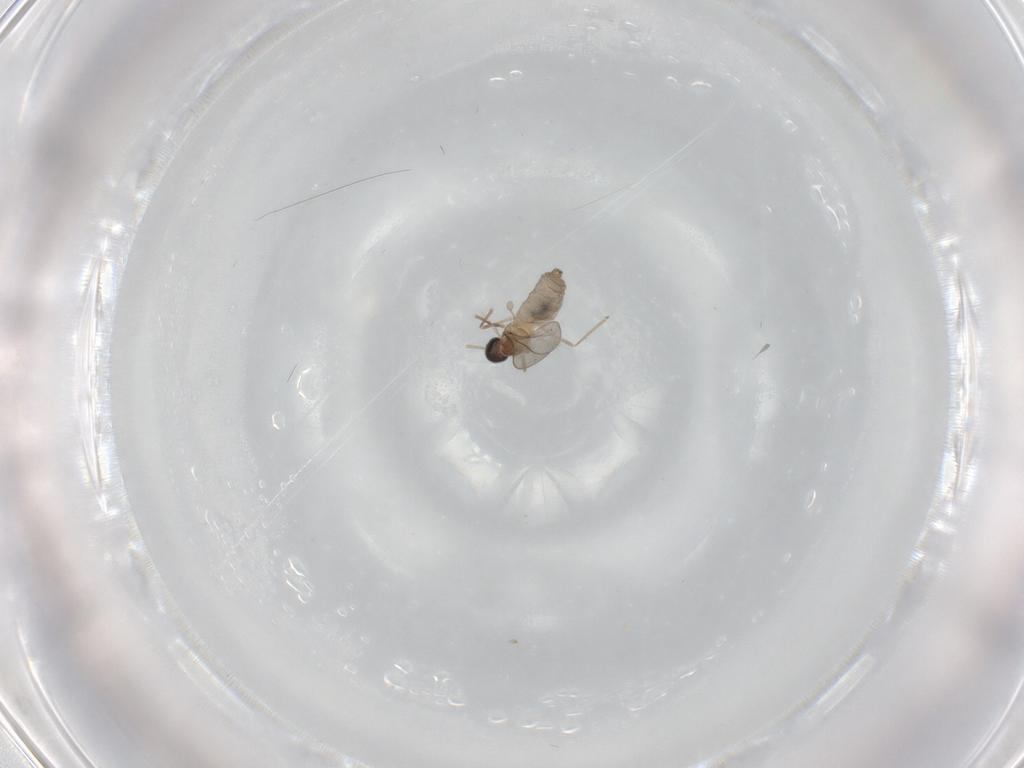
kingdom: Animalia
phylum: Arthropoda
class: Insecta
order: Diptera
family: Cecidomyiidae
